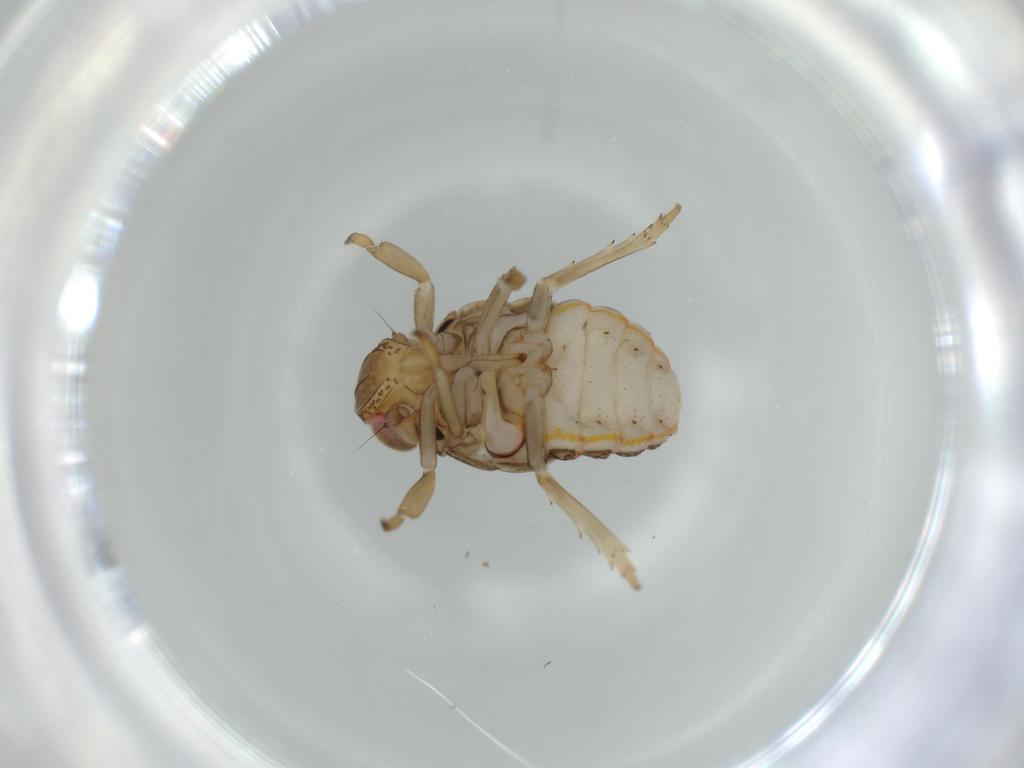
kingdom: Animalia
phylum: Arthropoda
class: Insecta
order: Hemiptera
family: Issidae
